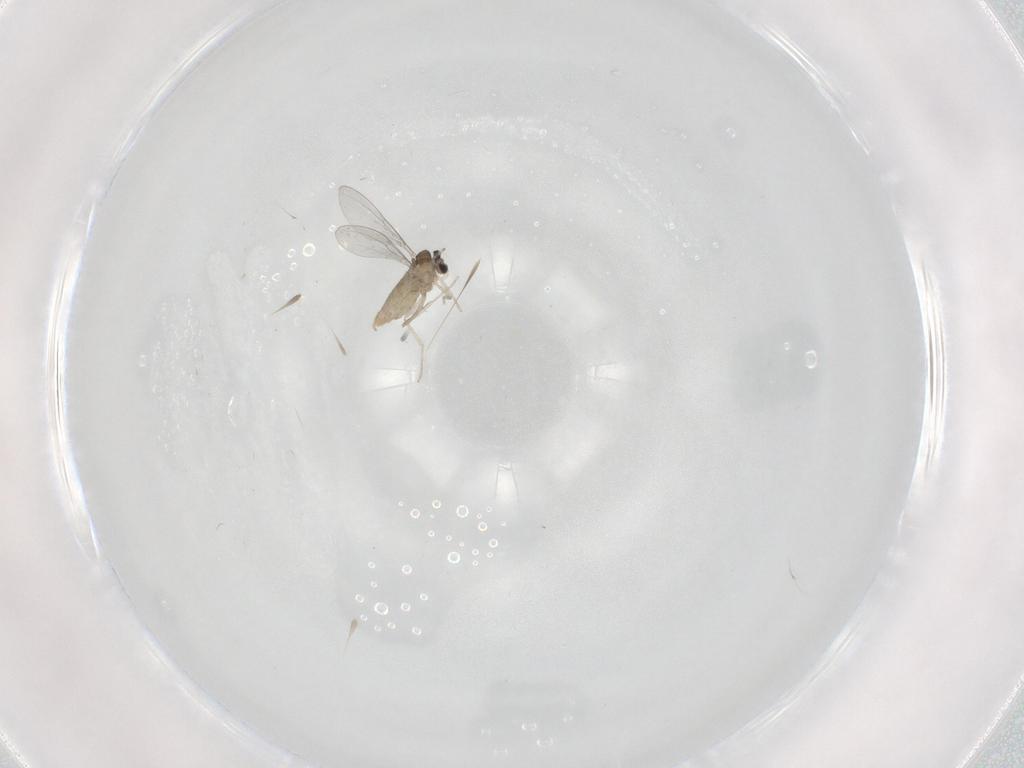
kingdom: Animalia
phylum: Arthropoda
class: Insecta
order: Diptera
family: Cecidomyiidae
